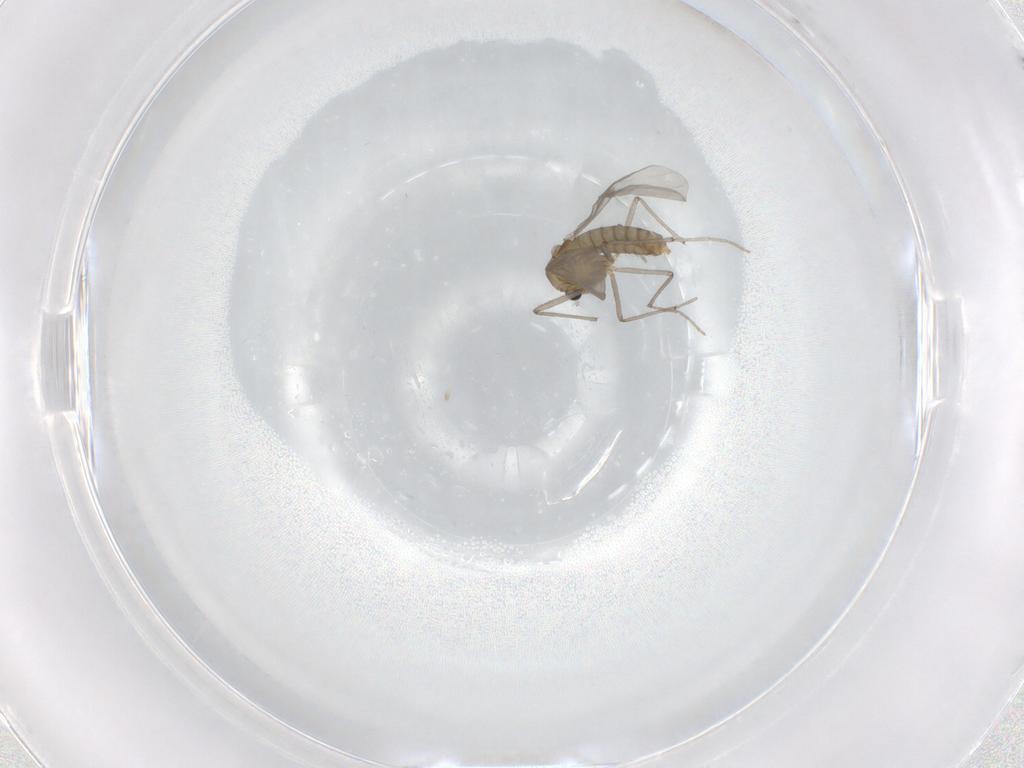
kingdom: Animalia
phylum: Arthropoda
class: Insecta
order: Diptera
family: Chironomidae
